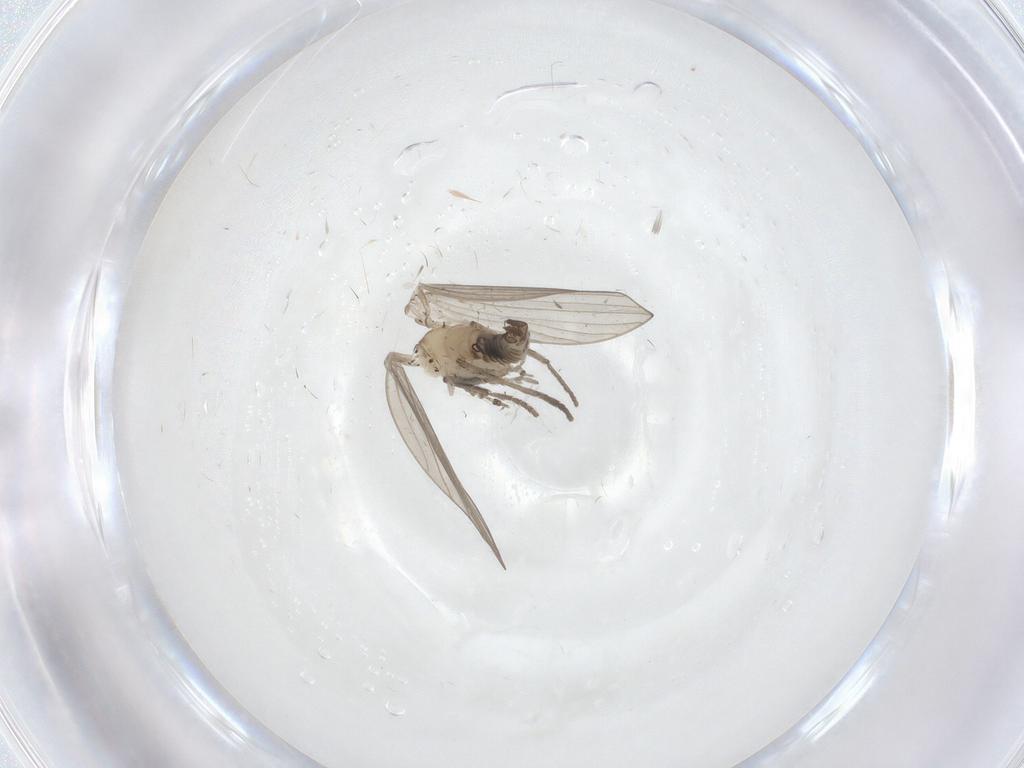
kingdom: Animalia
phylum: Arthropoda
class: Insecta
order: Diptera
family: Psychodidae
